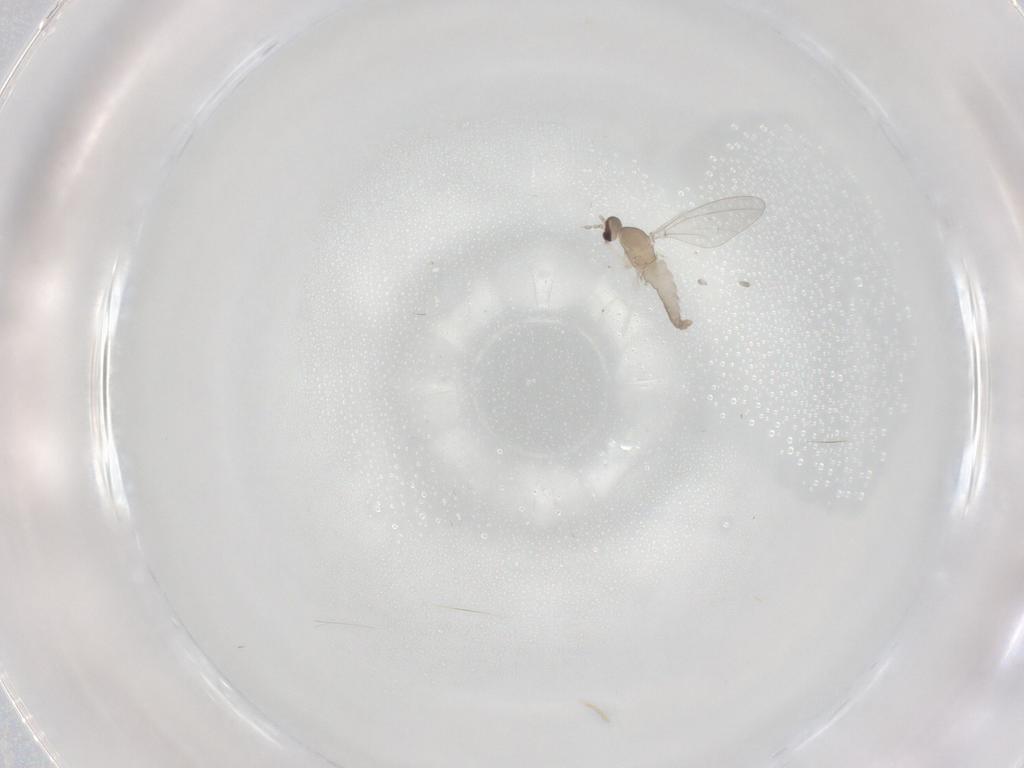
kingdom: Animalia
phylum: Arthropoda
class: Insecta
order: Diptera
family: Cecidomyiidae
